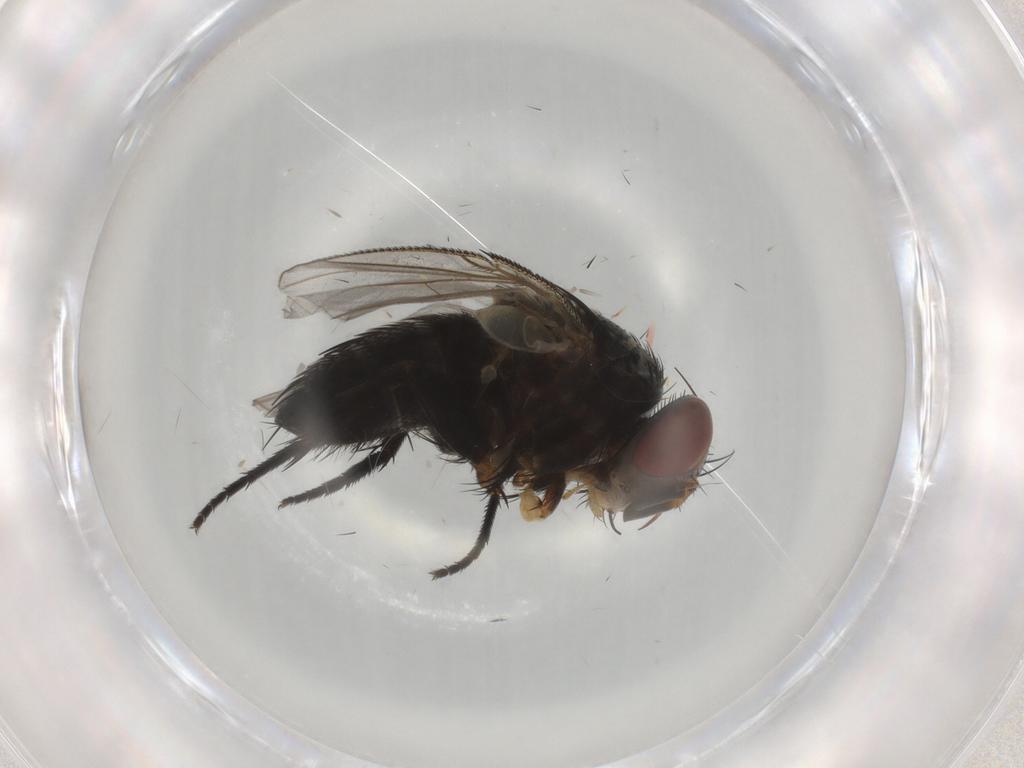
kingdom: Animalia
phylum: Arthropoda
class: Insecta
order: Diptera
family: Tachinidae
